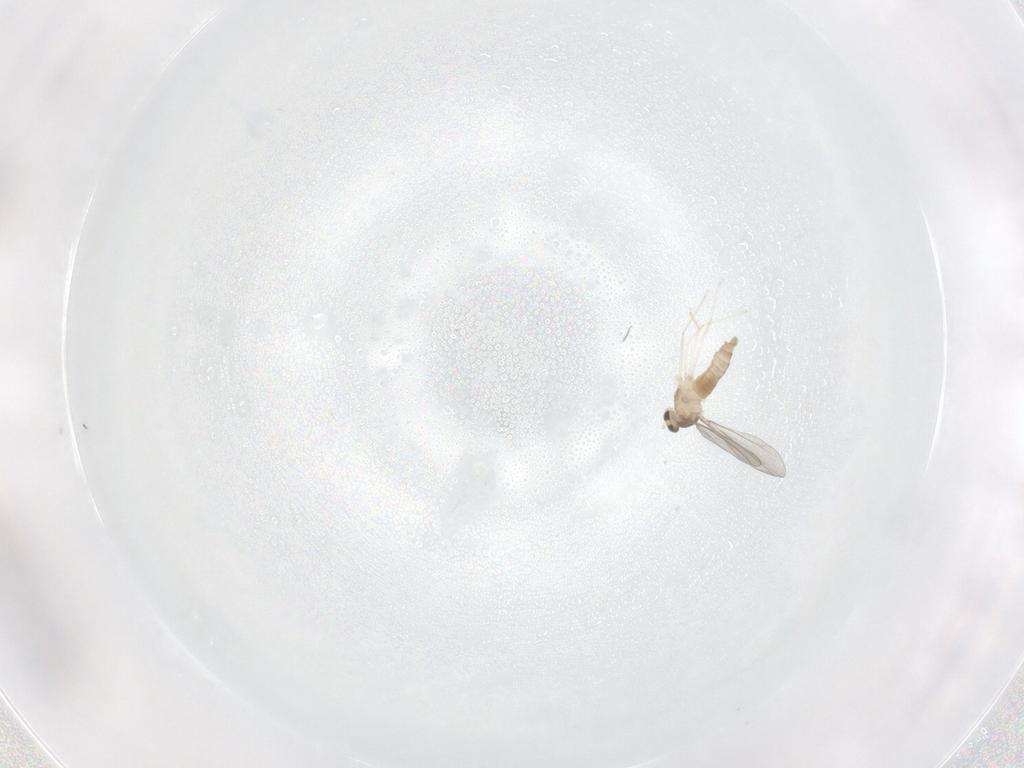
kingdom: Animalia
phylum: Arthropoda
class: Insecta
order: Diptera
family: Cecidomyiidae
